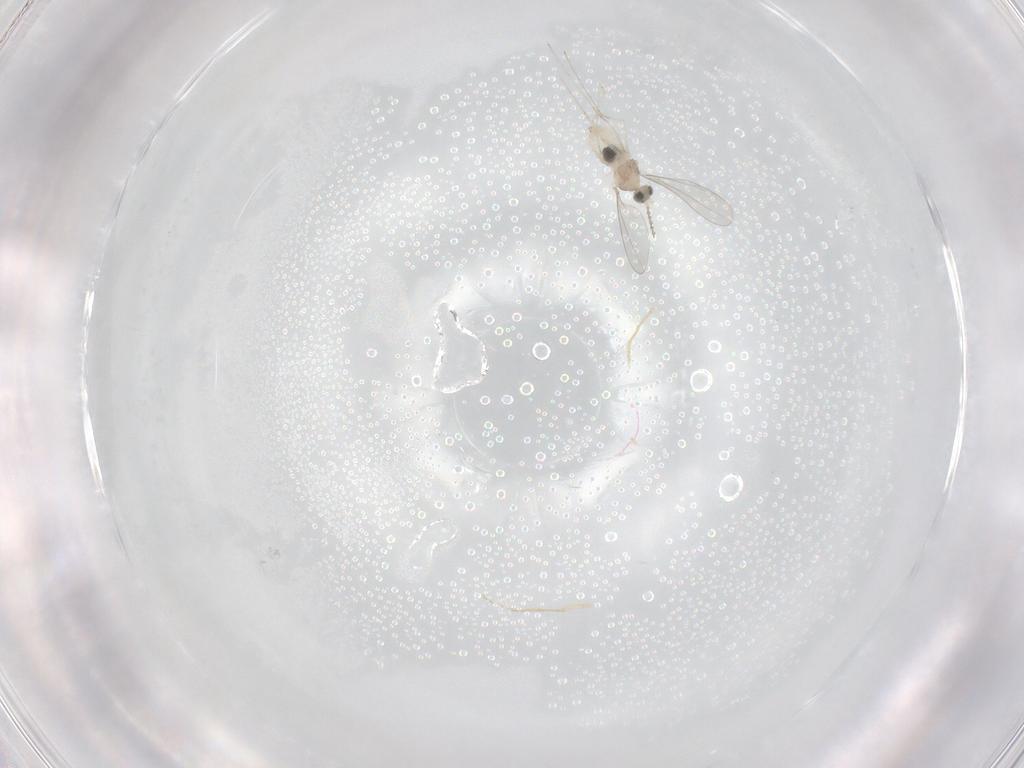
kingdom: Animalia
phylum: Arthropoda
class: Insecta
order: Diptera
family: Cecidomyiidae
